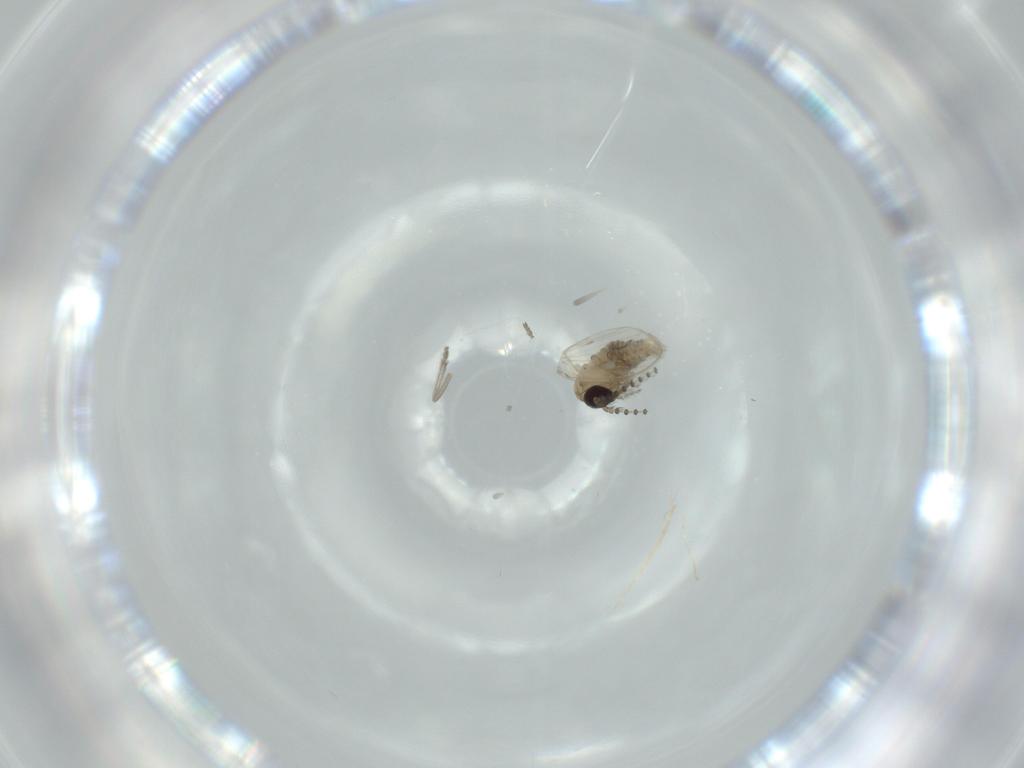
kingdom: Animalia
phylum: Arthropoda
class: Insecta
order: Diptera
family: Psychodidae
